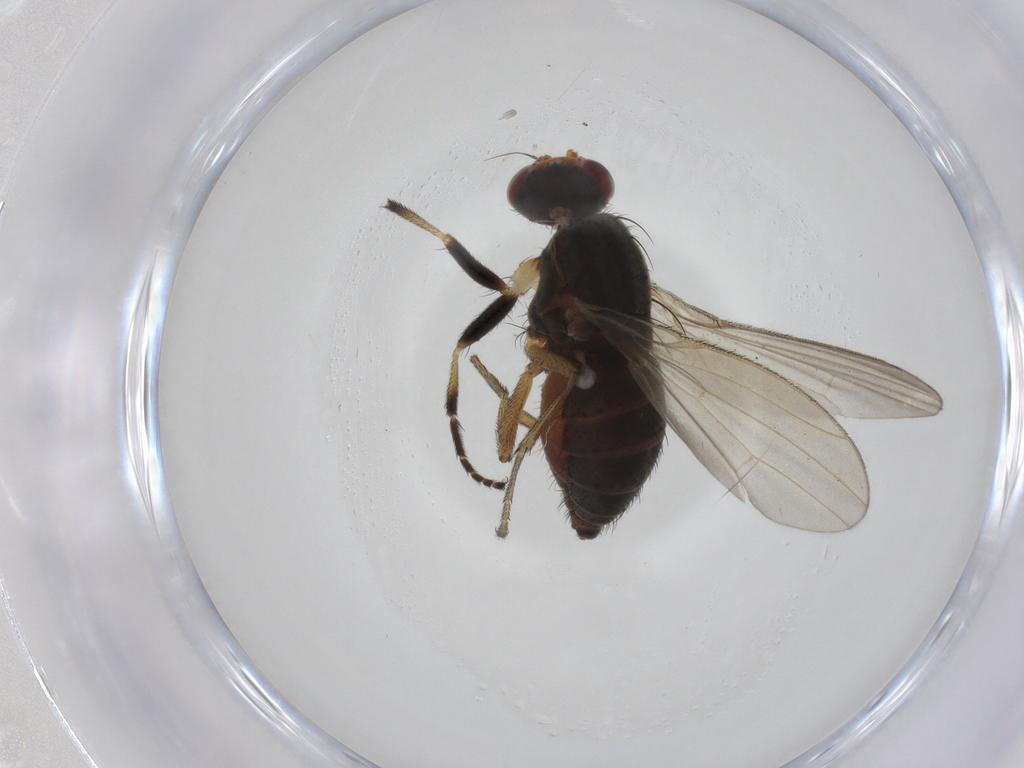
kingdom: Animalia
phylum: Arthropoda
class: Insecta
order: Diptera
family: Ulidiidae
